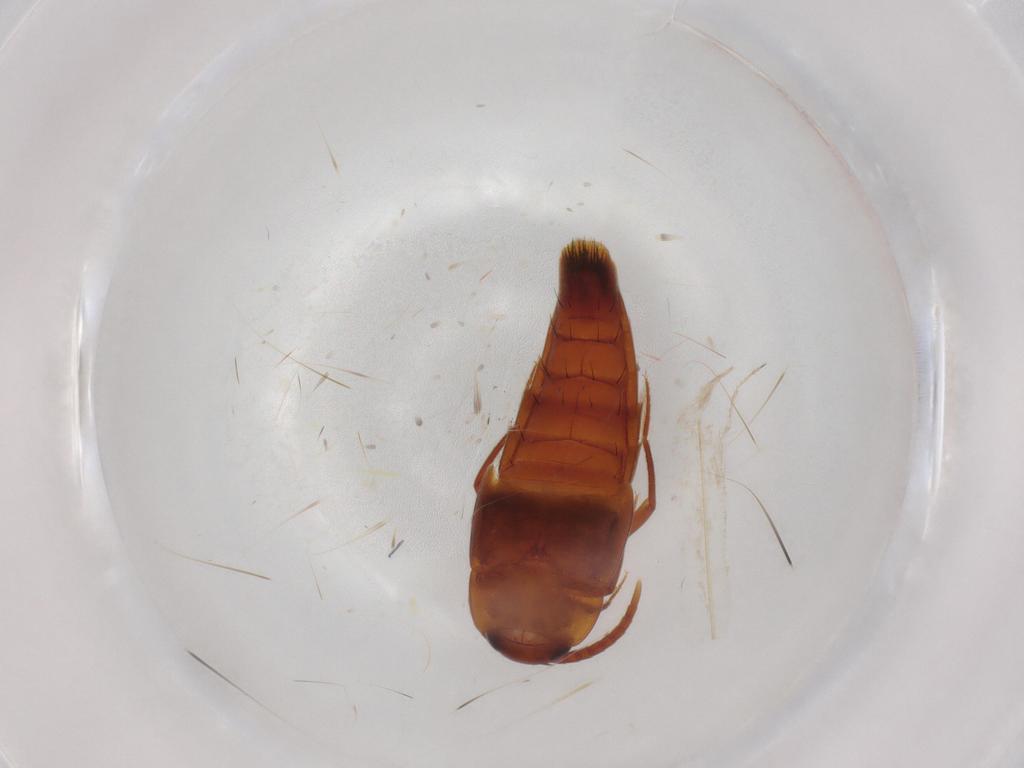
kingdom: Animalia
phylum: Arthropoda
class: Insecta
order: Coleoptera
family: Staphylinidae
